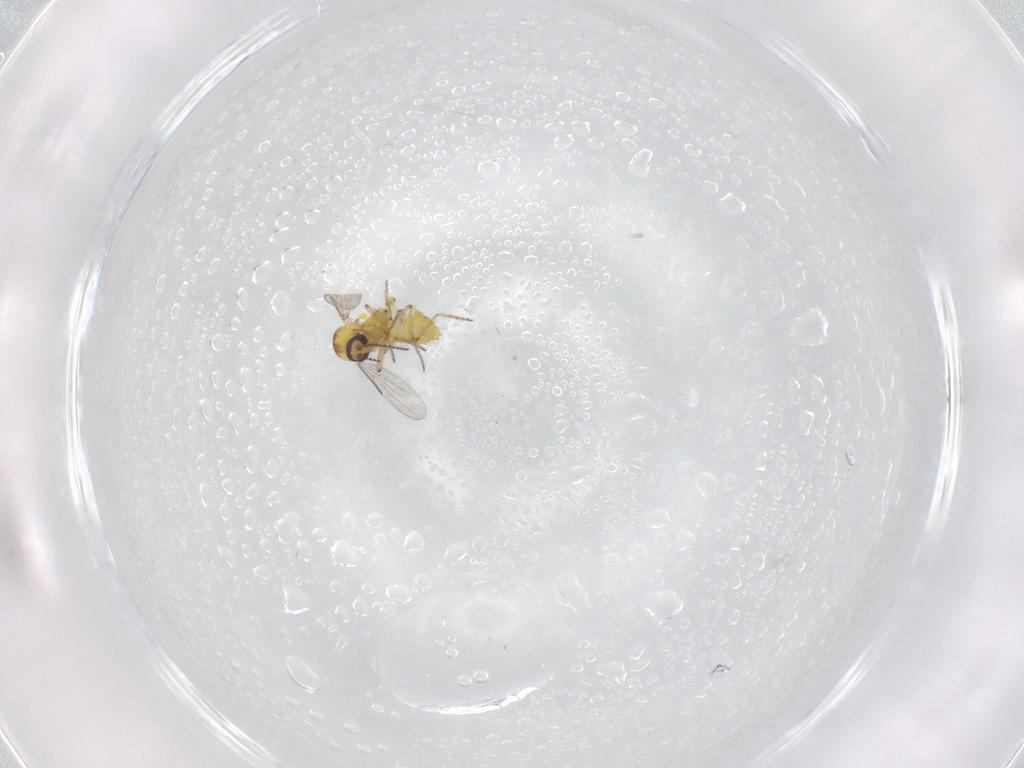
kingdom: Animalia
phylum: Arthropoda
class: Insecta
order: Diptera
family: Ceratopogonidae
